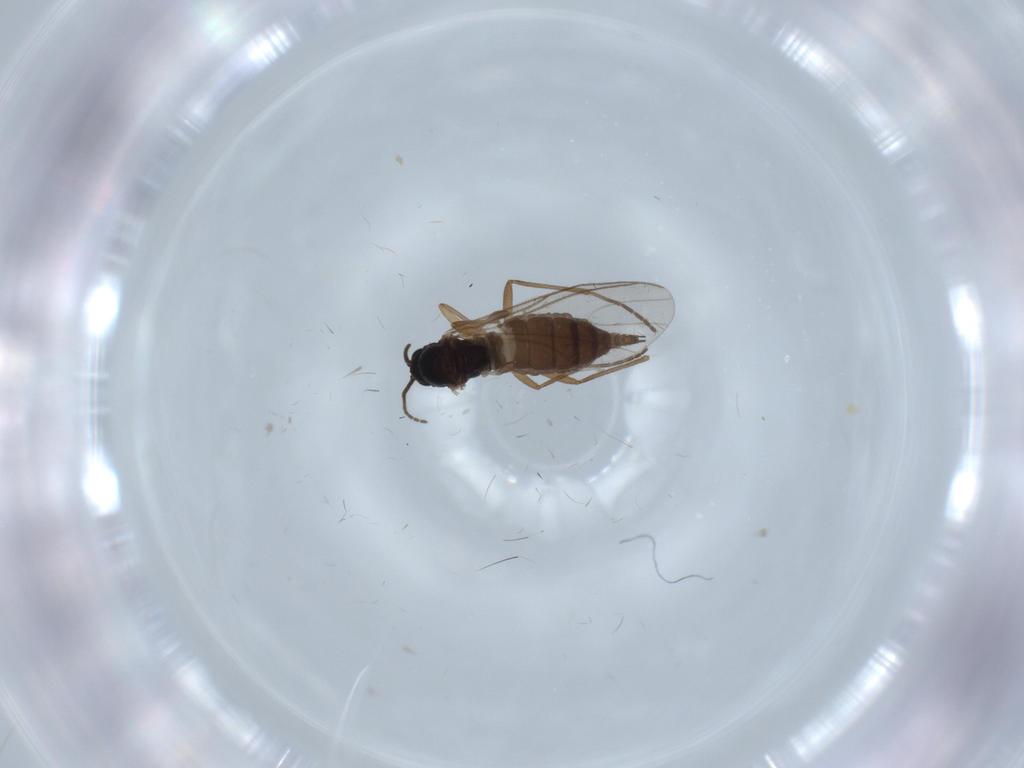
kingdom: Animalia
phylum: Arthropoda
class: Insecta
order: Diptera
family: Sciaridae
